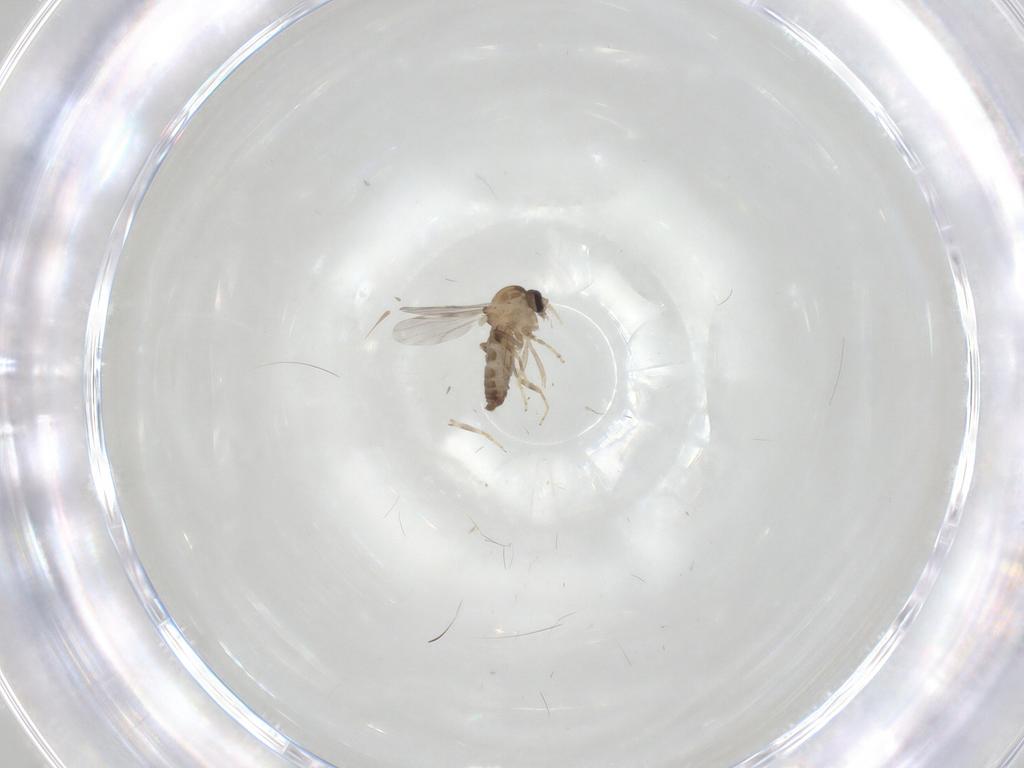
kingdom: Animalia
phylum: Arthropoda
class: Insecta
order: Diptera
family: Ceratopogonidae
